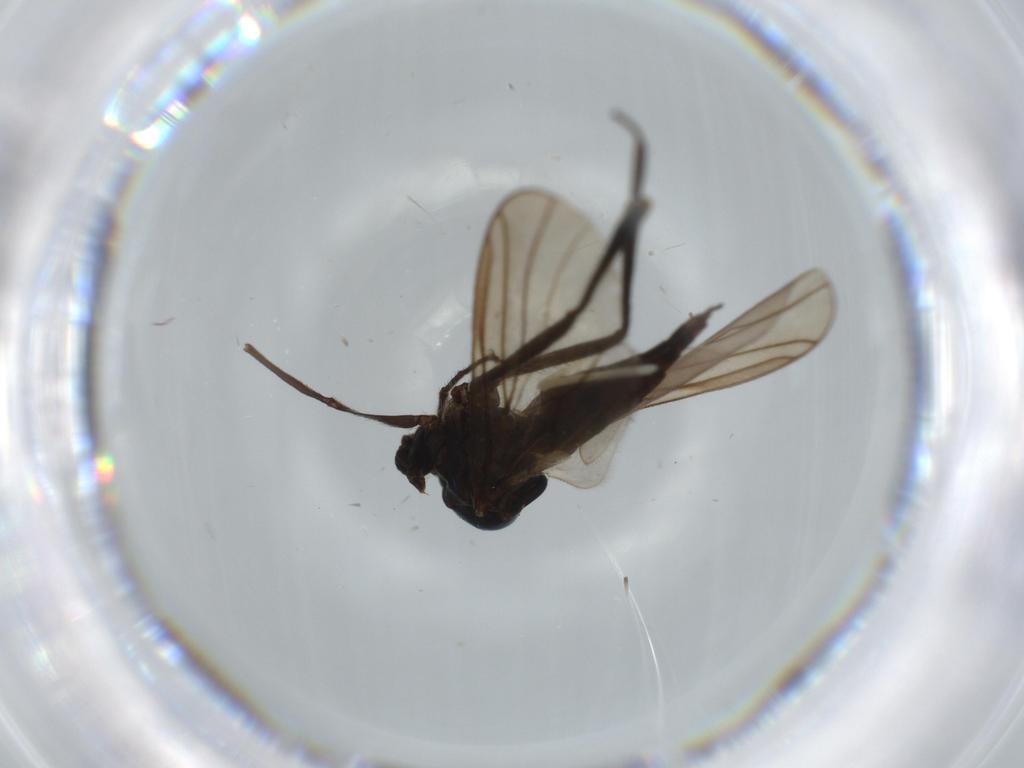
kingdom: Animalia
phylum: Arthropoda
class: Insecta
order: Diptera
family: Hybotidae
